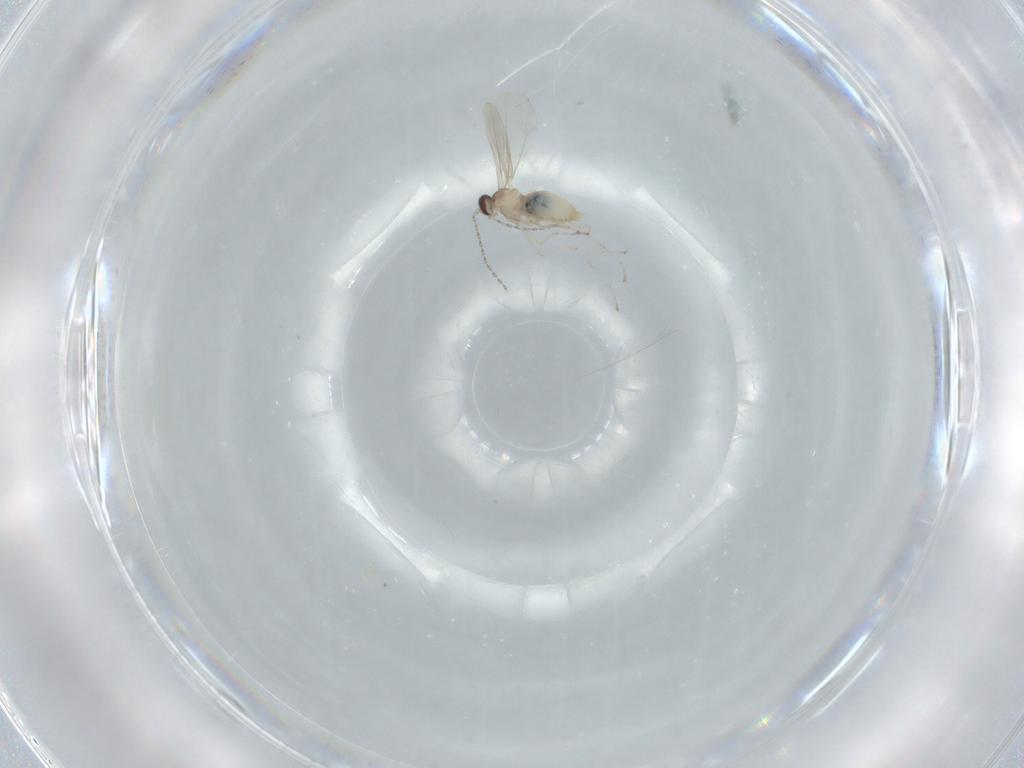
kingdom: Animalia
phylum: Arthropoda
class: Insecta
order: Diptera
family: Cecidomyiidae
